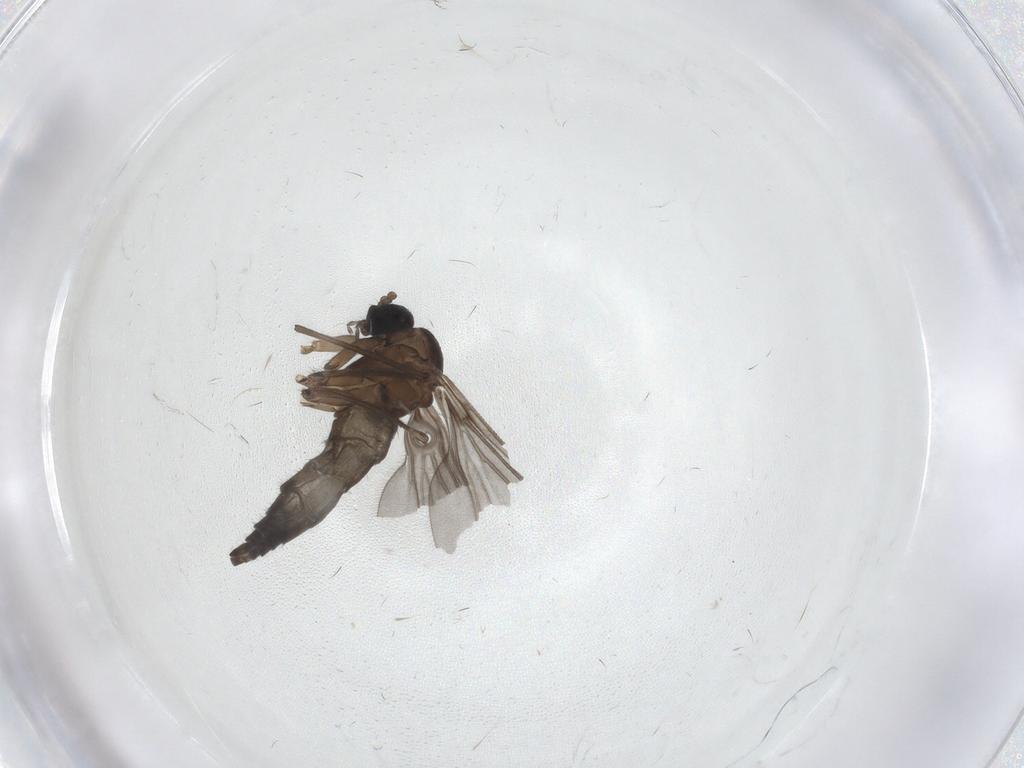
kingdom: Animalia
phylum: Arthropoda
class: Insecta
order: Diptera
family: Sciaridae
